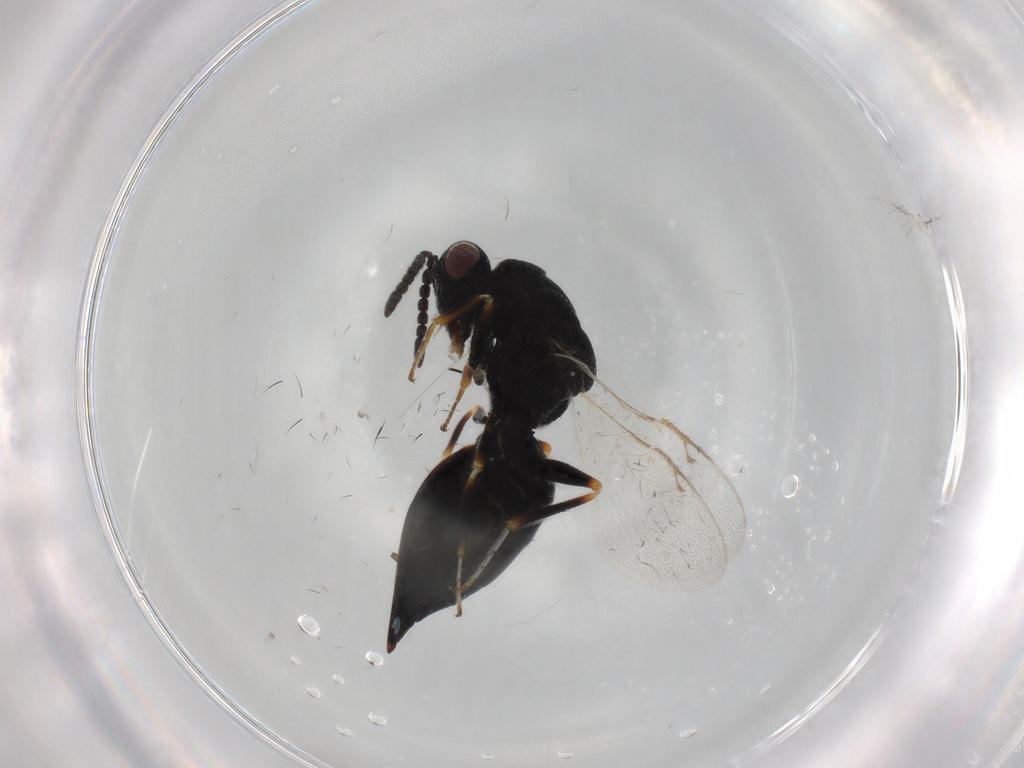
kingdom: Animalia
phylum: Arthropoda
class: Insecta
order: Hymenoptera
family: Eurytomidae
